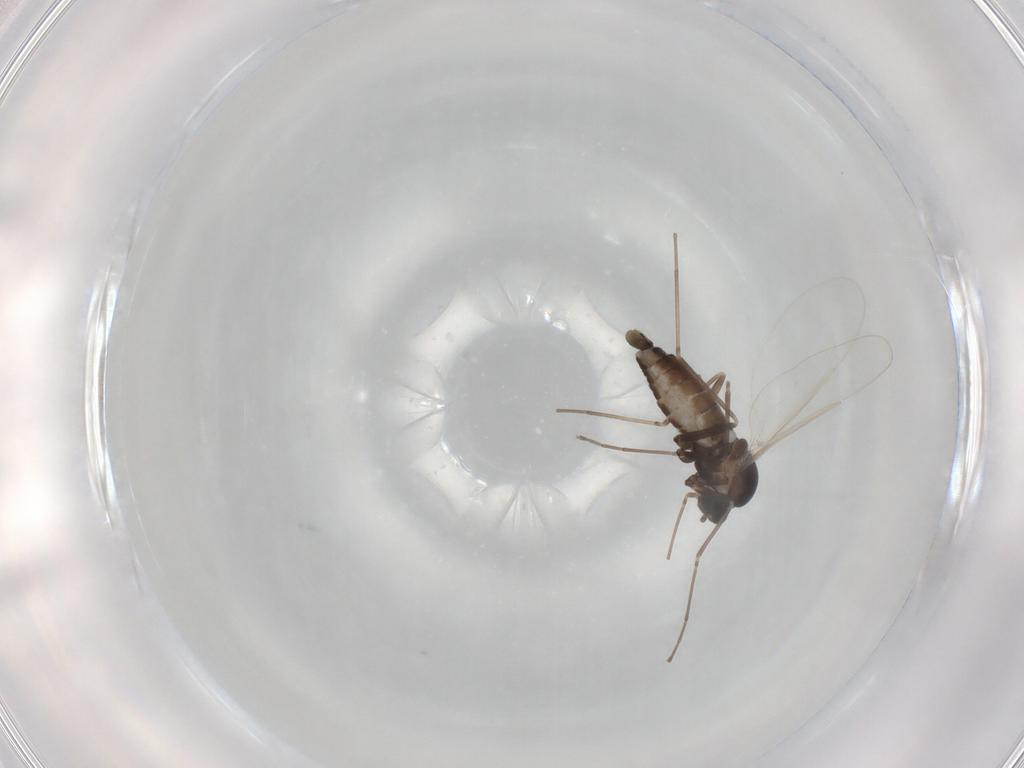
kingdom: Animalia
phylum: Arthropoda
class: Insecta
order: Diptera
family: Cecidomyiidae
